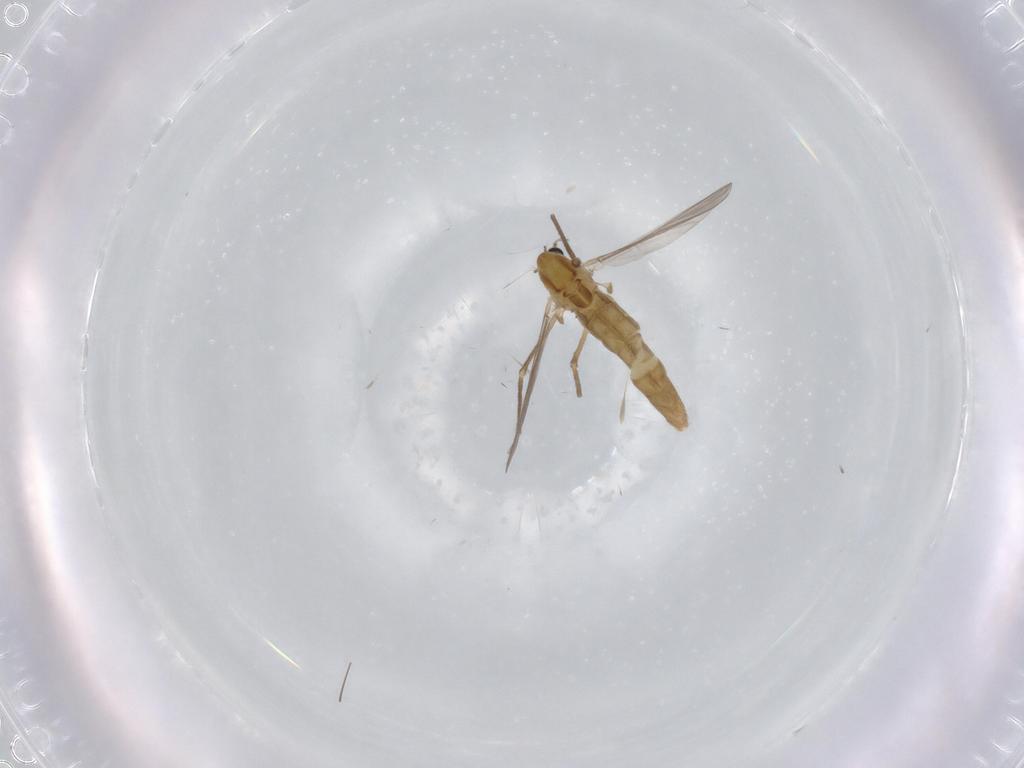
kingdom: Animalia
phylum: Arthropoda
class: Insecta
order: Diptera
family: Chironomidae
